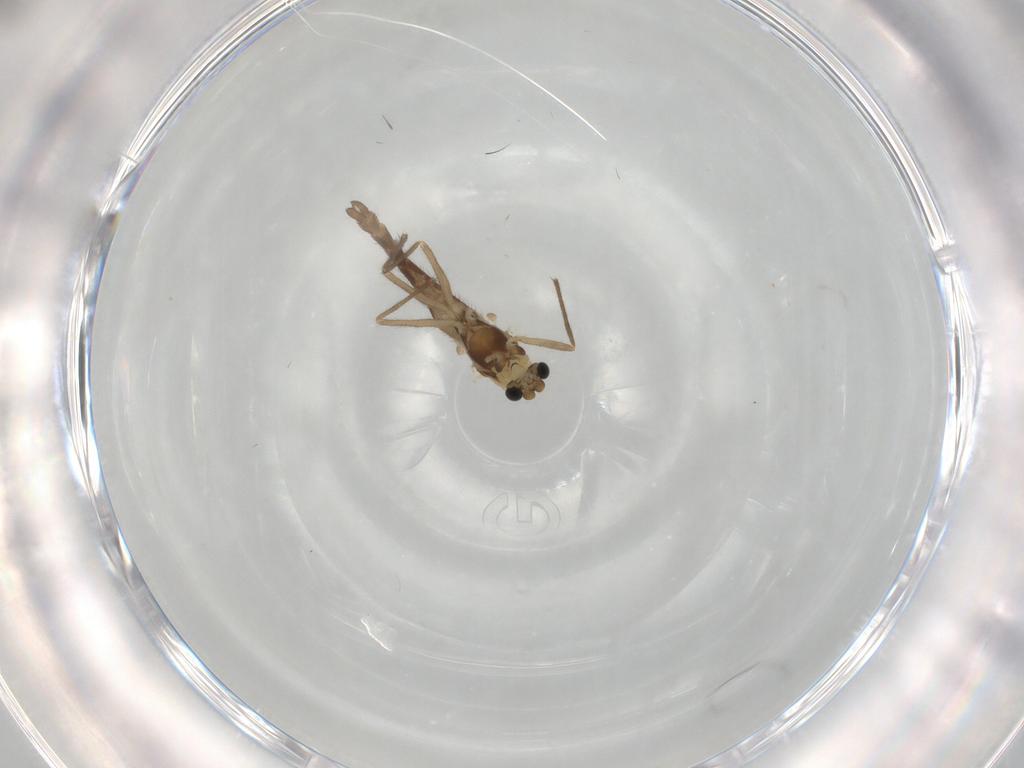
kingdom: Animalia
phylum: Arthropoda
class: Insecta
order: Diptera
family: Chironomidae
